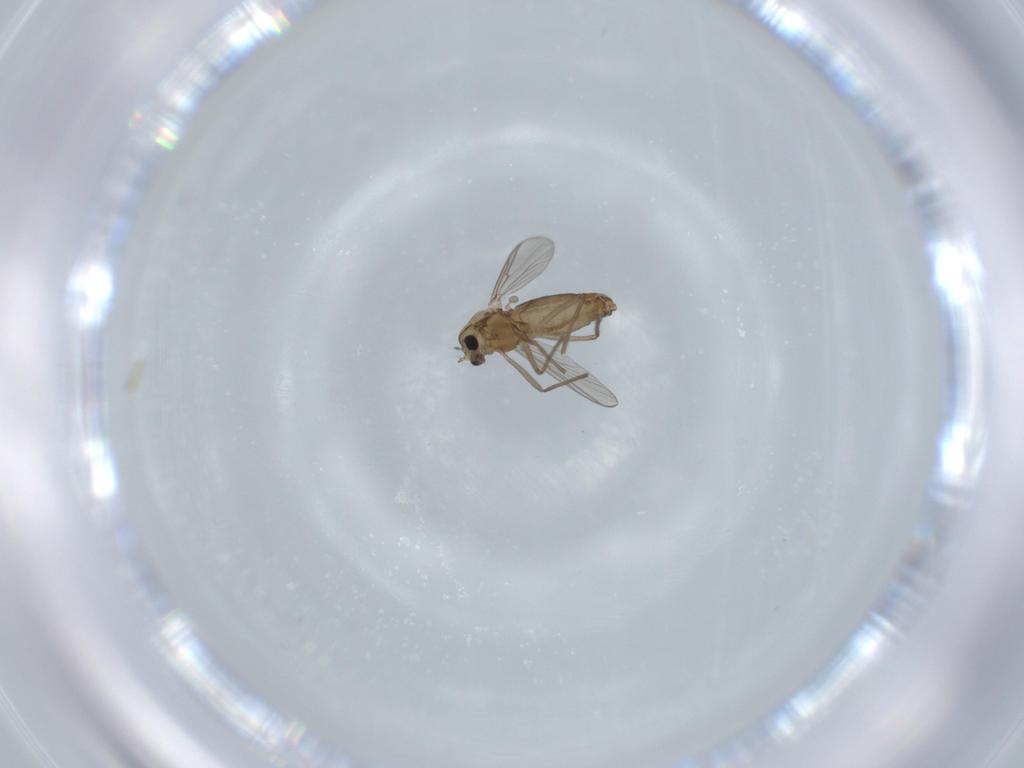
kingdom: Animalia
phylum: Arthropoda
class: Insecta
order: Diptera
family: Chironomidae
